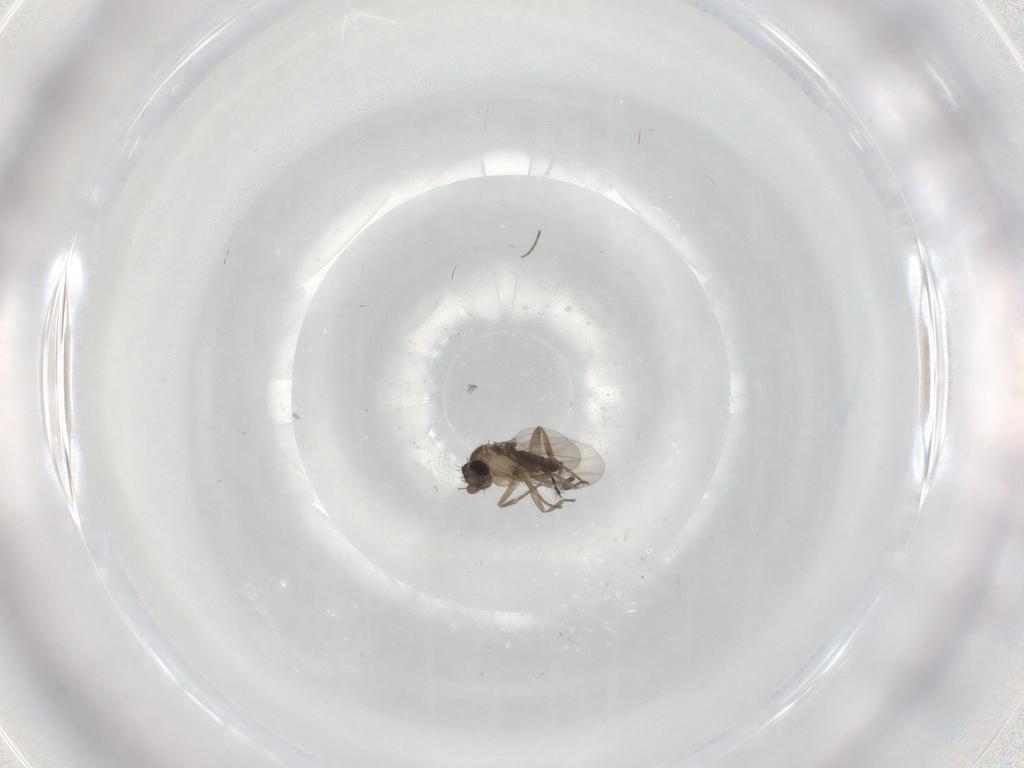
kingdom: Animalia
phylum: Arthropoda
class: Insecta
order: Diptera
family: Phoridae
